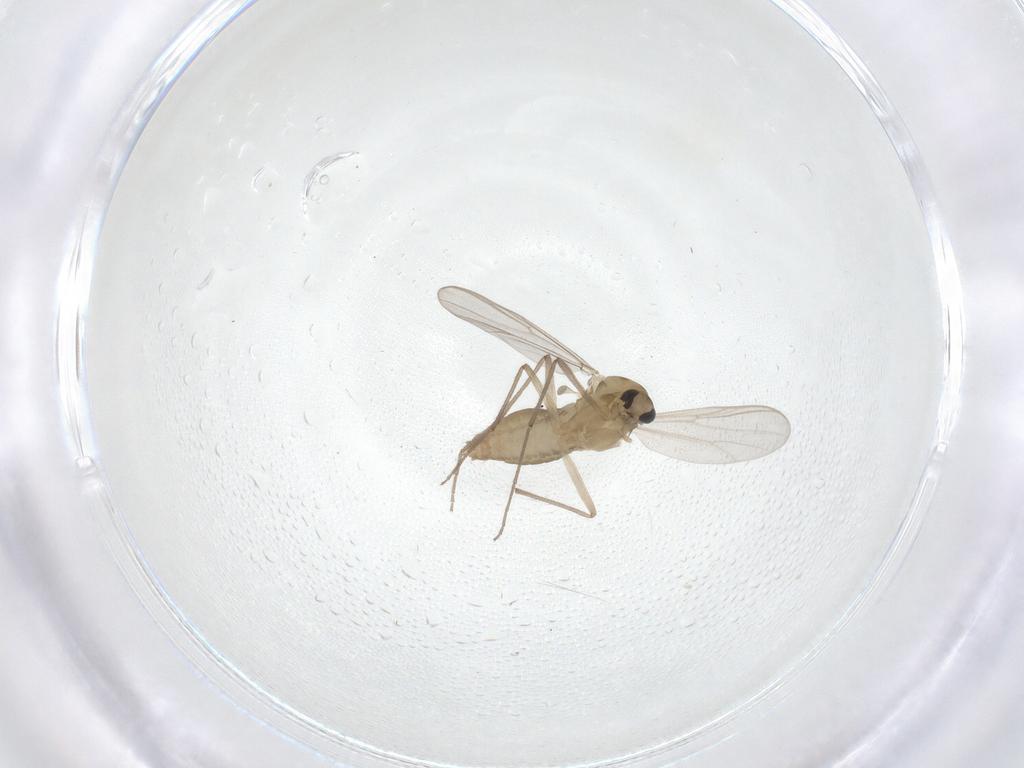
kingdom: Animalia
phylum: Arthropoda
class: Insecta
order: Diptera
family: Chironomidae
